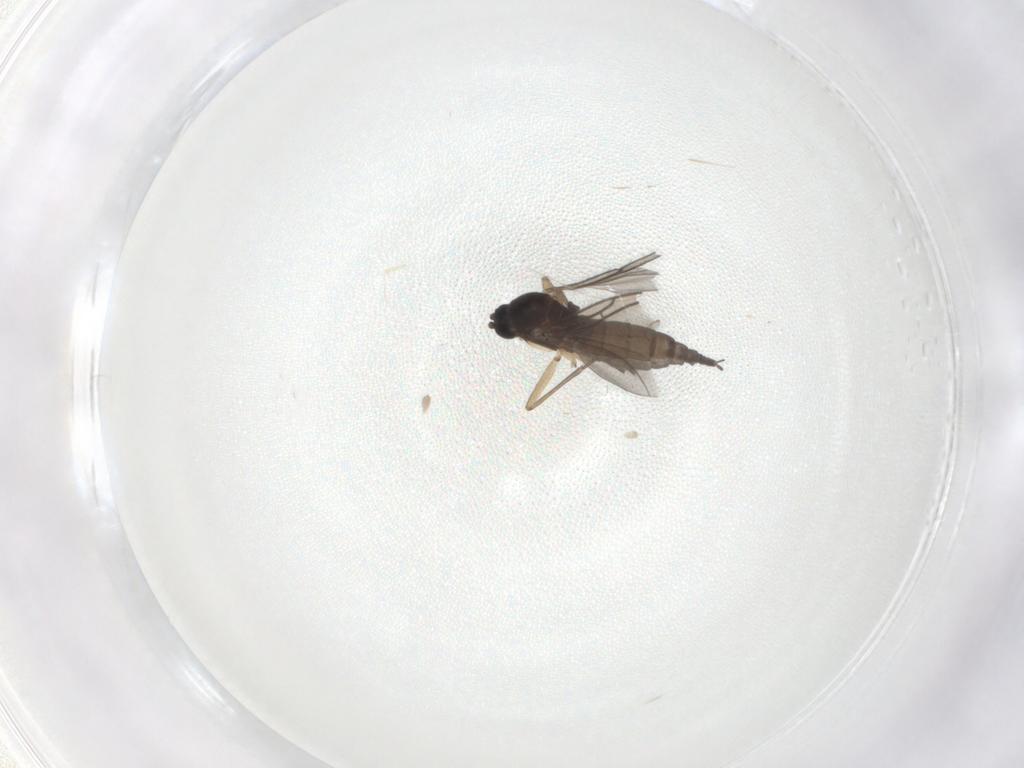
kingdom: Animalia
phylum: Arthropoda
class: Insecta
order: Diptera
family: Sciaridae
